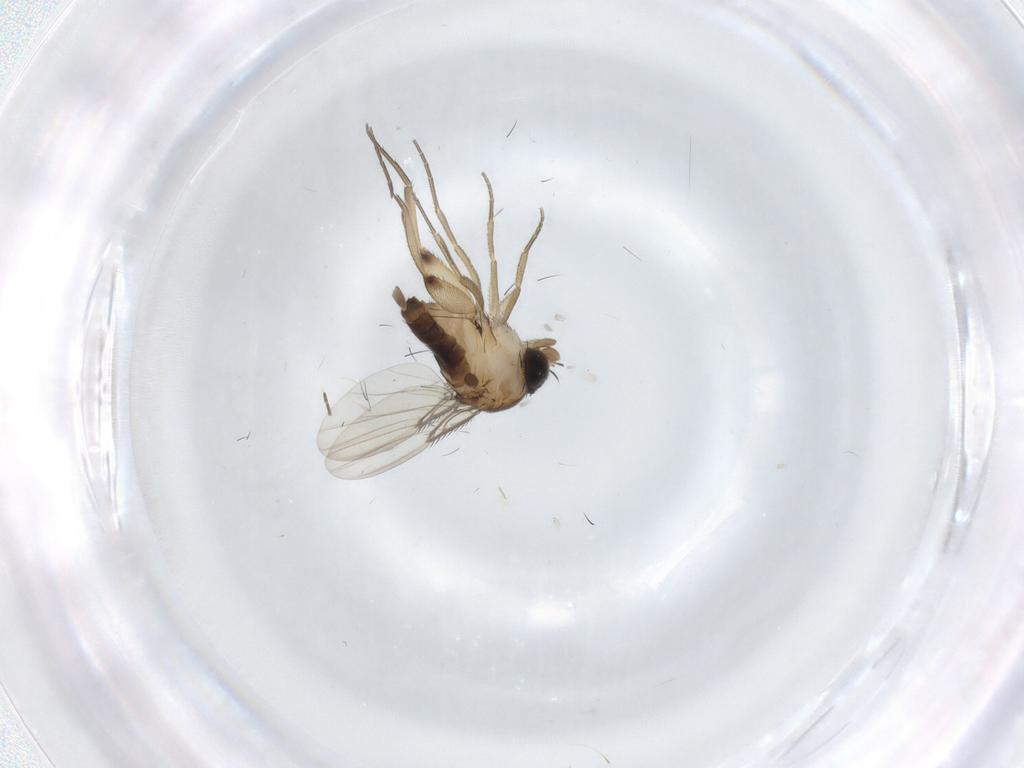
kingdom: Animalia
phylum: Arthropoda
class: Insecta
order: Diptera
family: Phoridae
